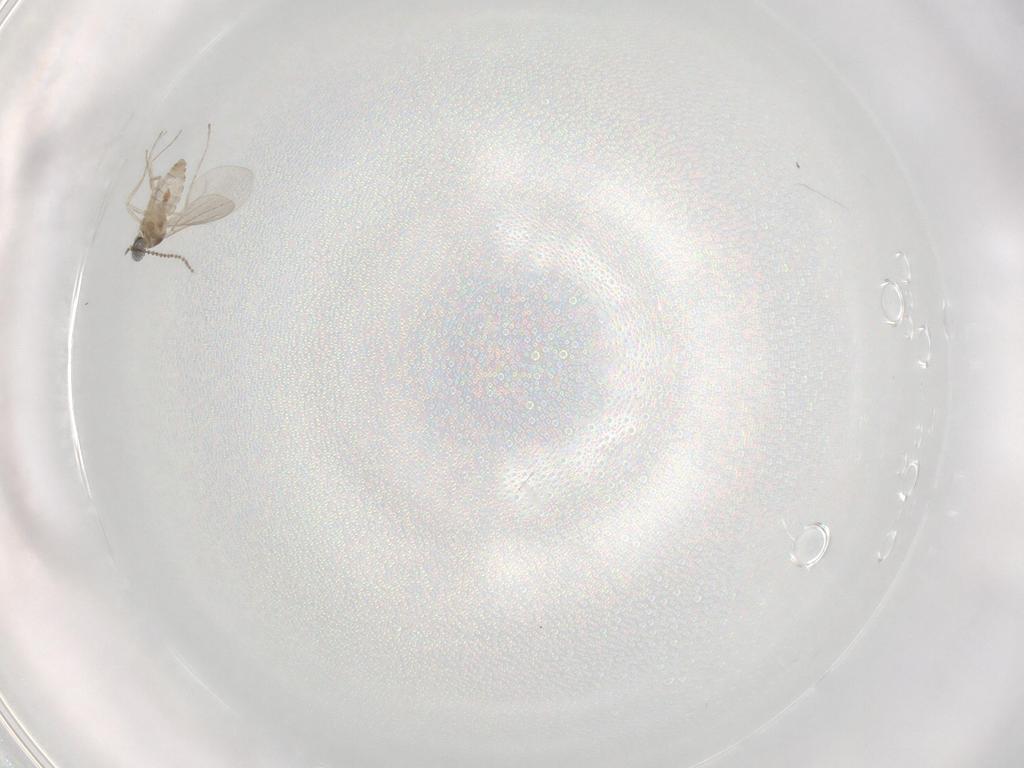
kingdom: Animalia
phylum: Arthropoda
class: Insecta
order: Diptera
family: Cecidomyiidae
